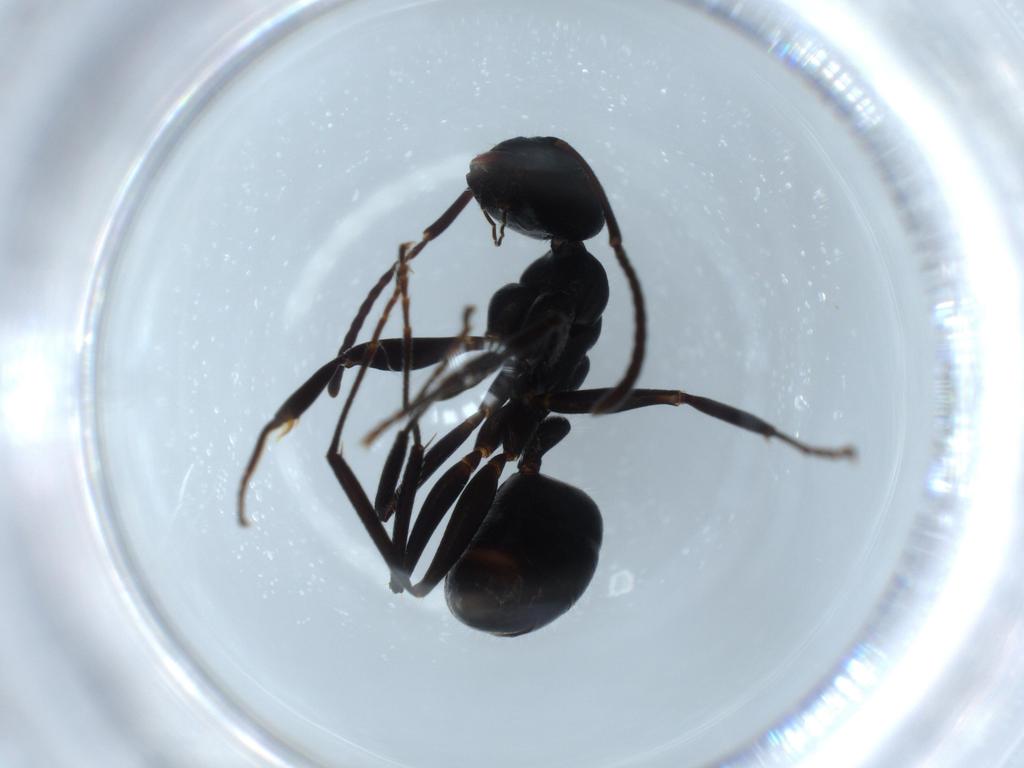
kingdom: Animalia
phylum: Arthropoda
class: Insecta
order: Hymenoptera
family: Formicidae
